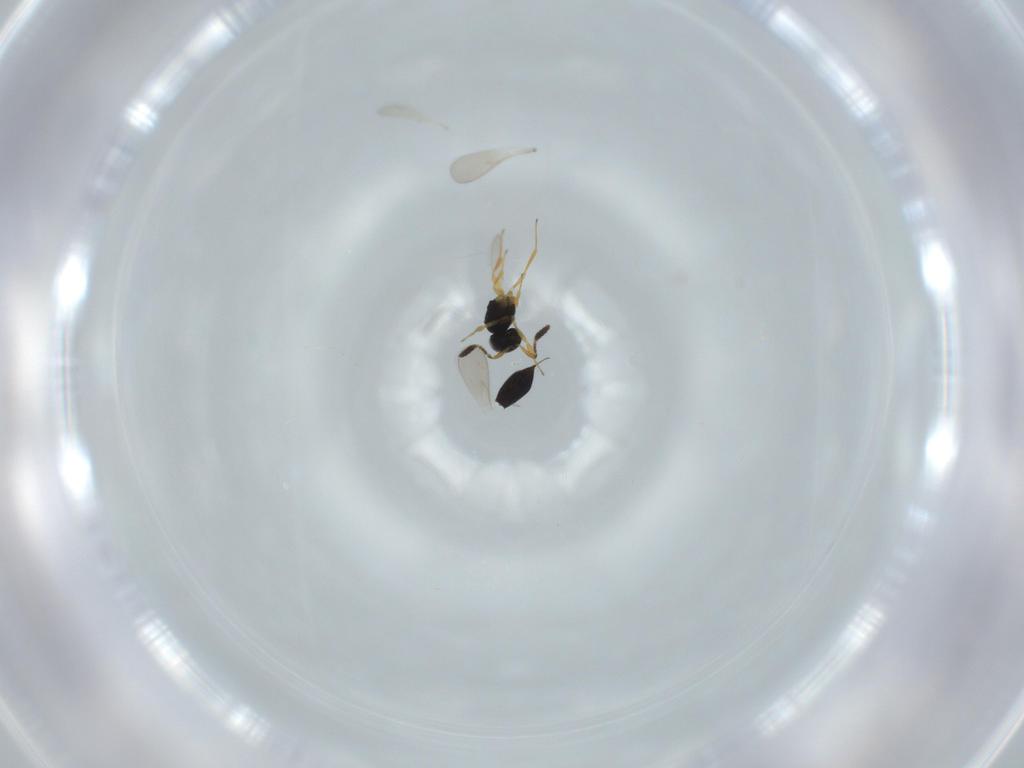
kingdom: Animalia
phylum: Arthropoda
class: Insecta
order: Hymenoptera
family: Scelionidae
